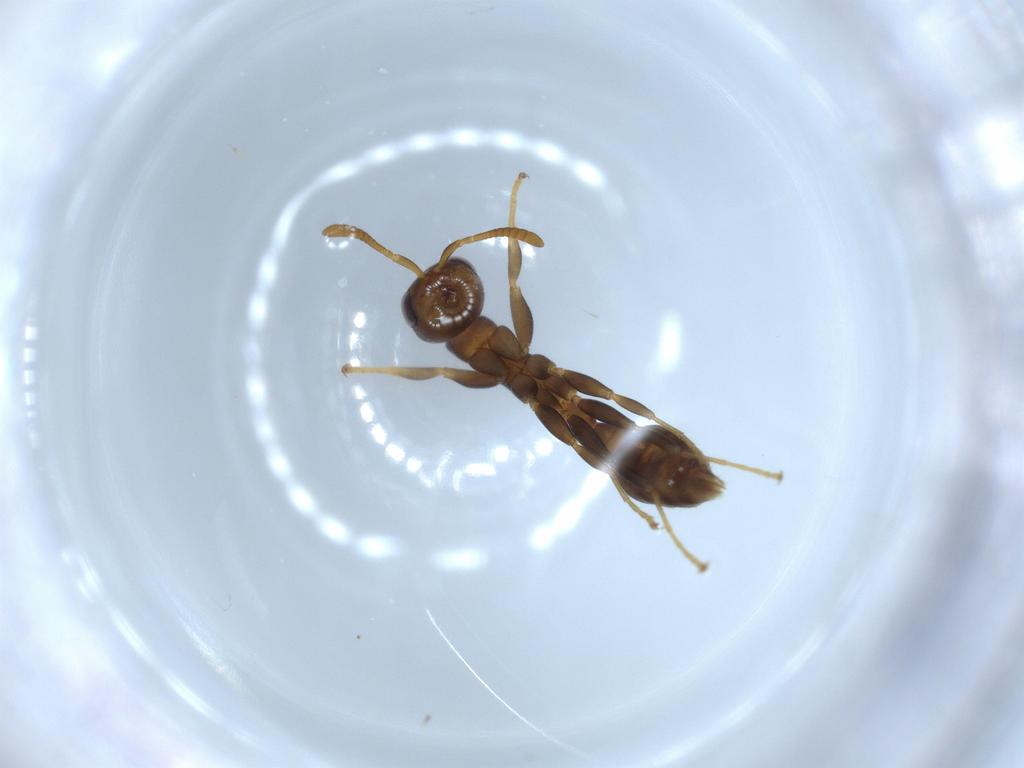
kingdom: Animalia
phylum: Arthropoda
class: Insecta
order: Hymenoptera
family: Formicidae
